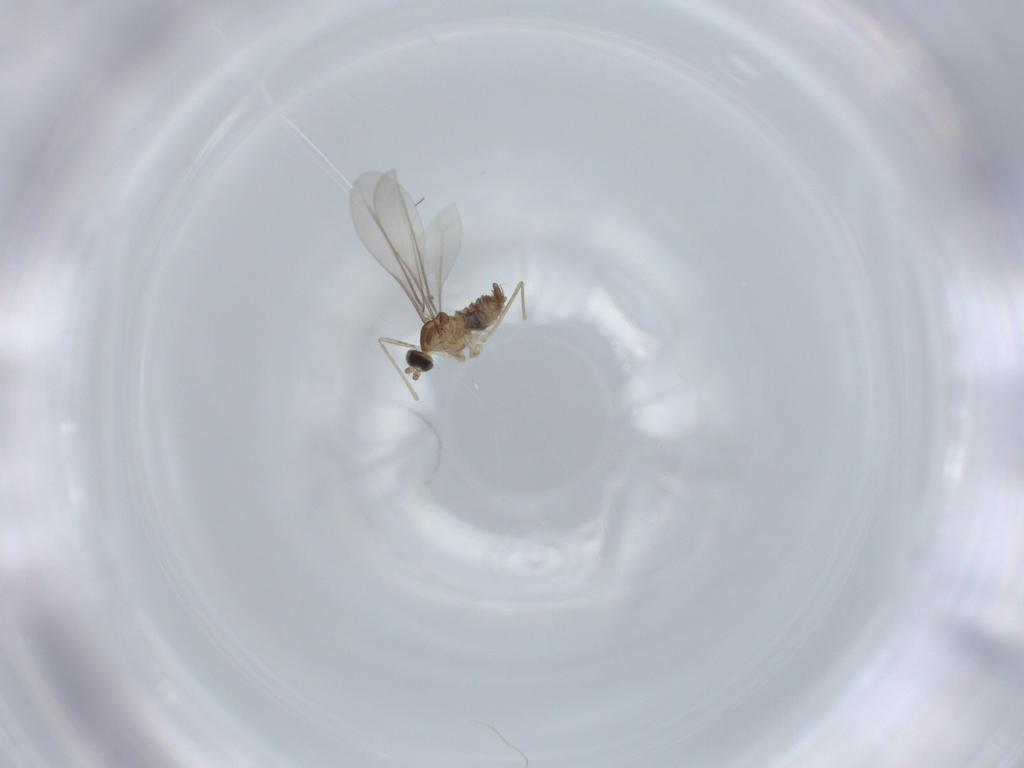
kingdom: Animalia
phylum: Arthropoda
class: Insecta
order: Diptera
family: Cecidomyiidae
